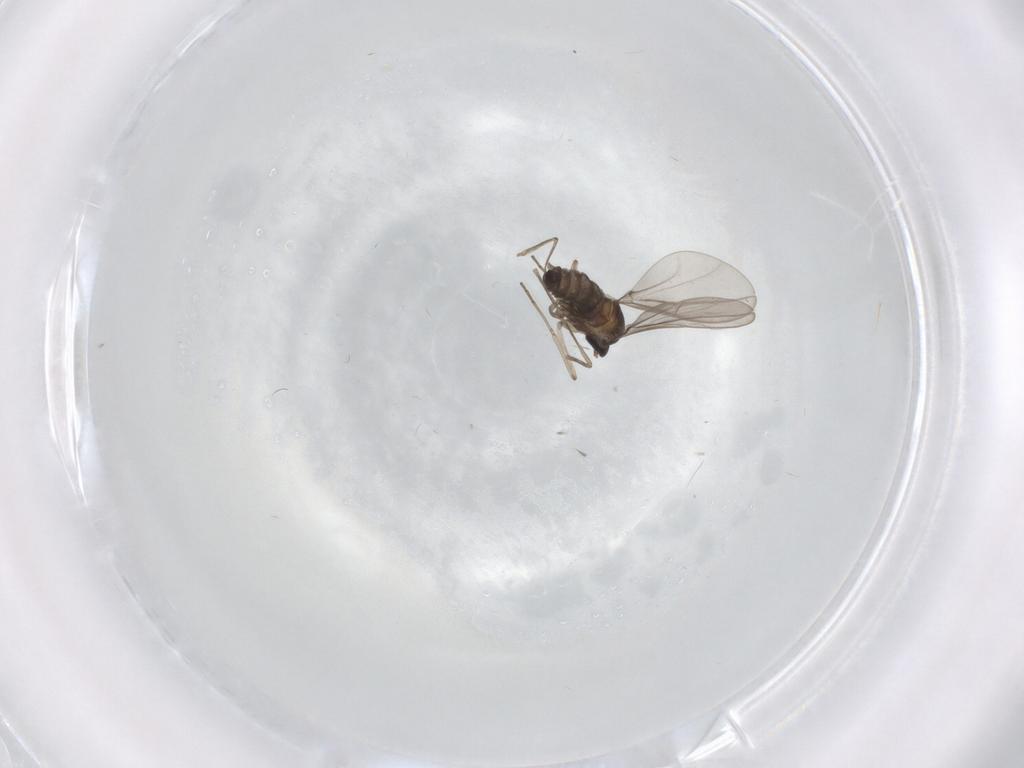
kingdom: Animalia
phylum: Arthropoda
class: Insecta
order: Diptera
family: Cecidomyiidae
